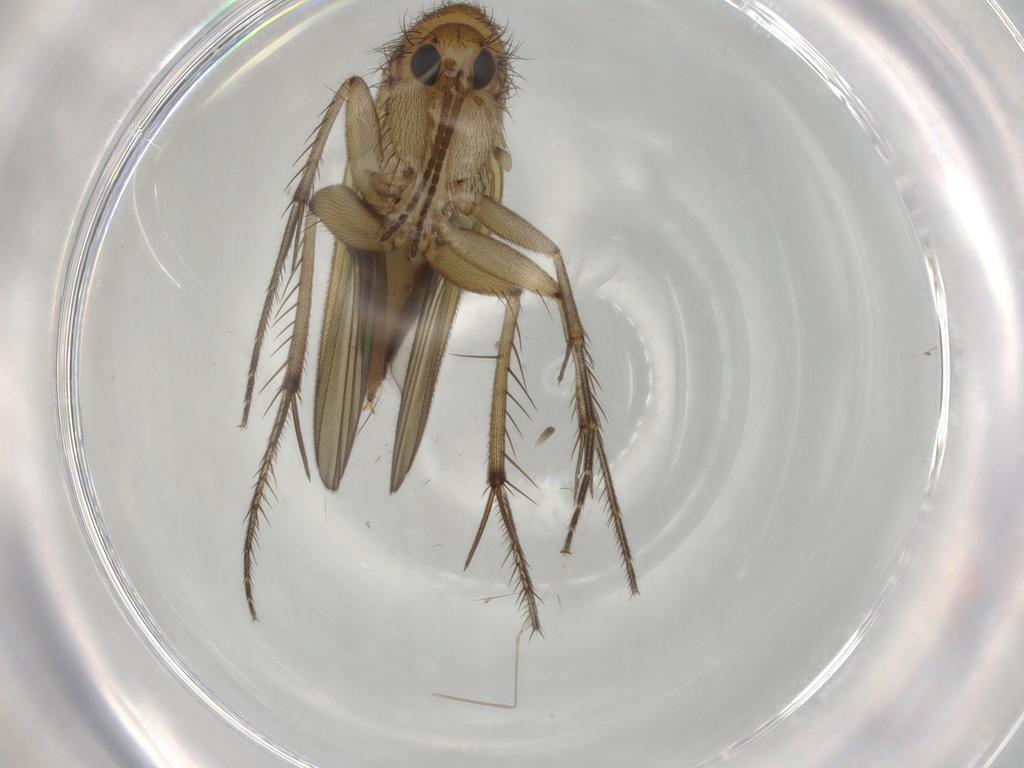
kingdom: Animalia
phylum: Arthropoda
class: Insecta
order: Diptera
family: Mycetophilidae
